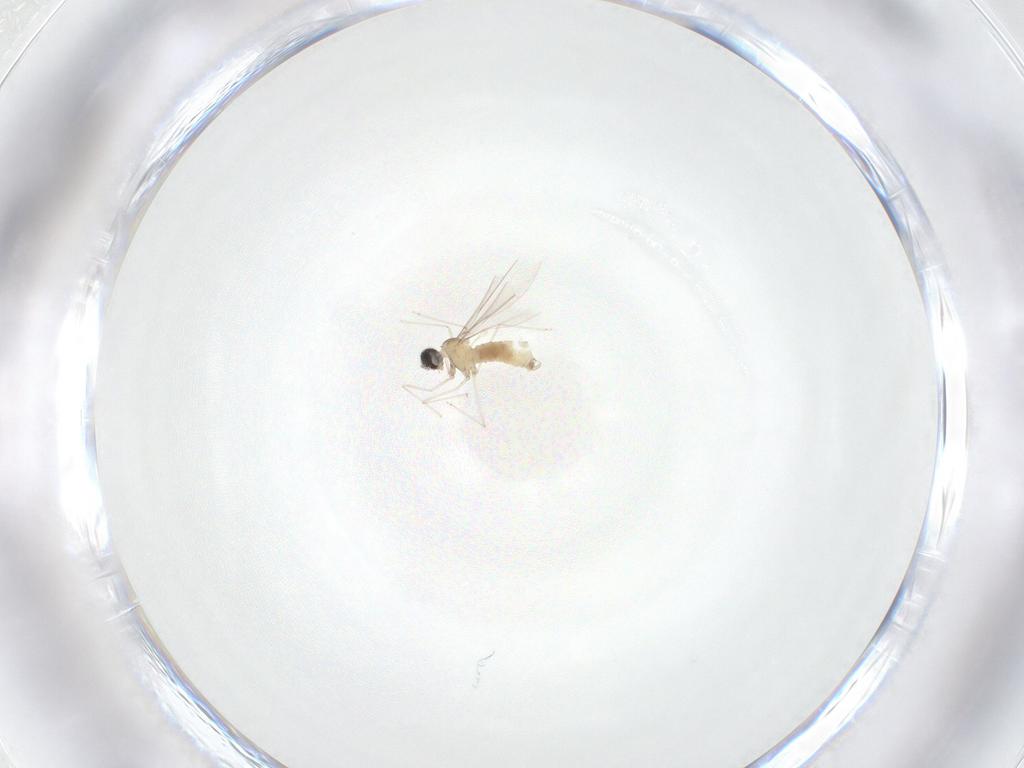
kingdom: Animalia
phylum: Arthropoda
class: Insecta
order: Diptera
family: Cecidomyiidae
